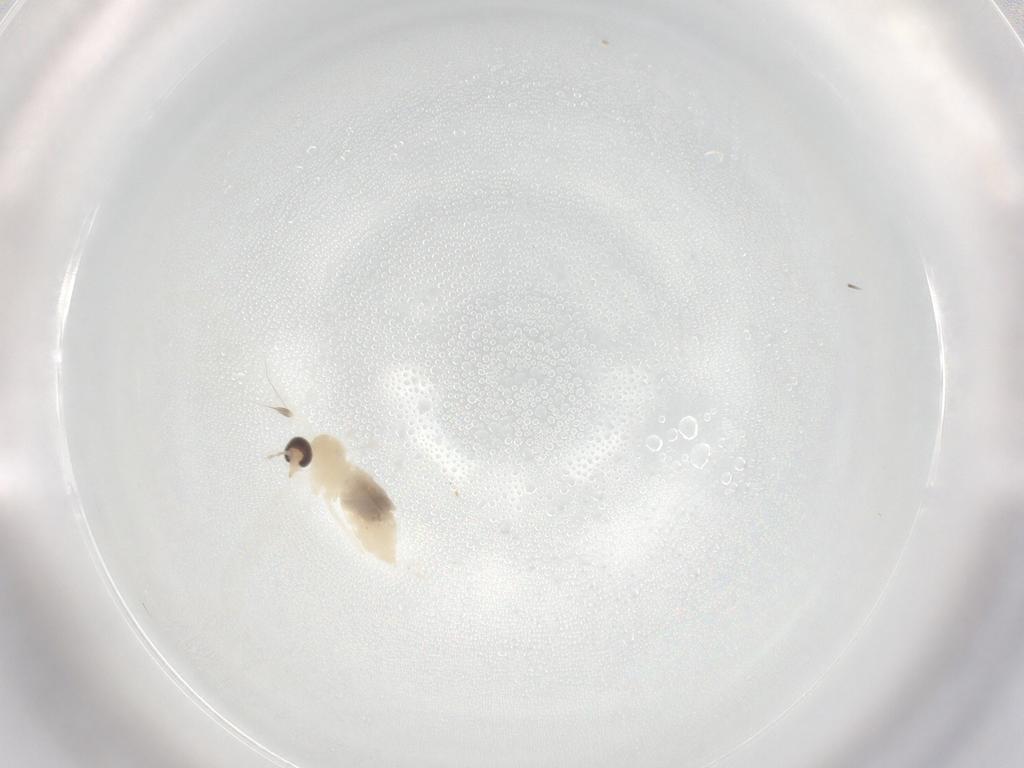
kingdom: Animalia
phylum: Arthropoda
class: Insecta
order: Diptera
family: Cecidomyiidae
